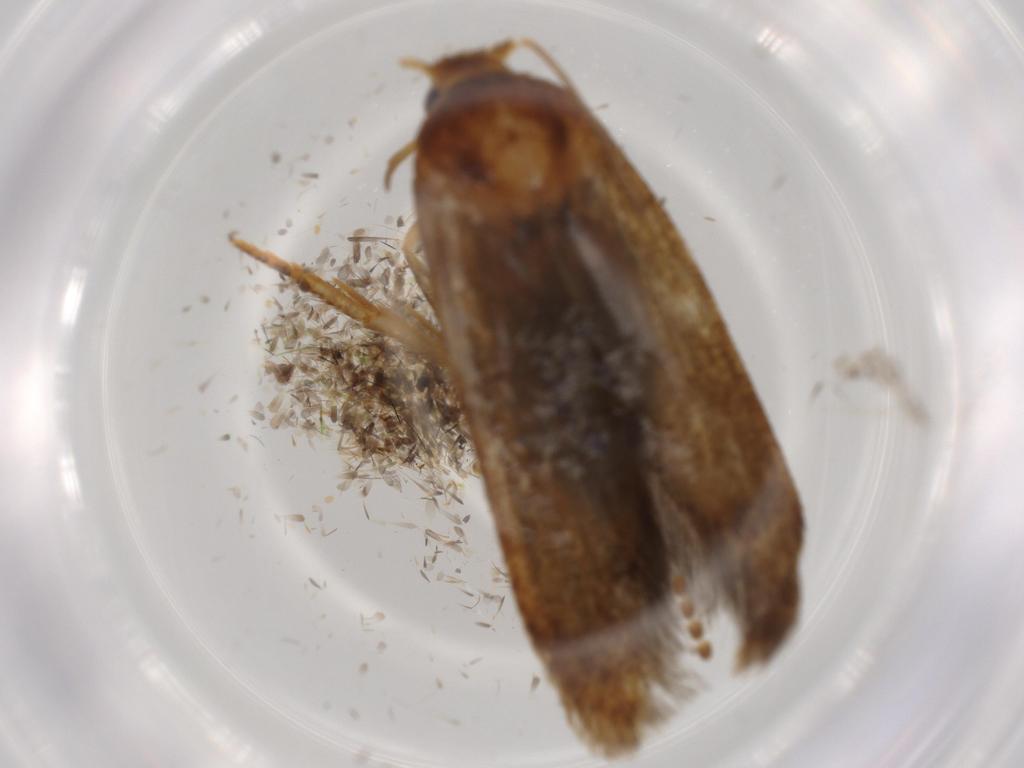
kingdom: Animalia
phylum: Arthropoda
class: Insecta
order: Lepidoptera
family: Tineidae
